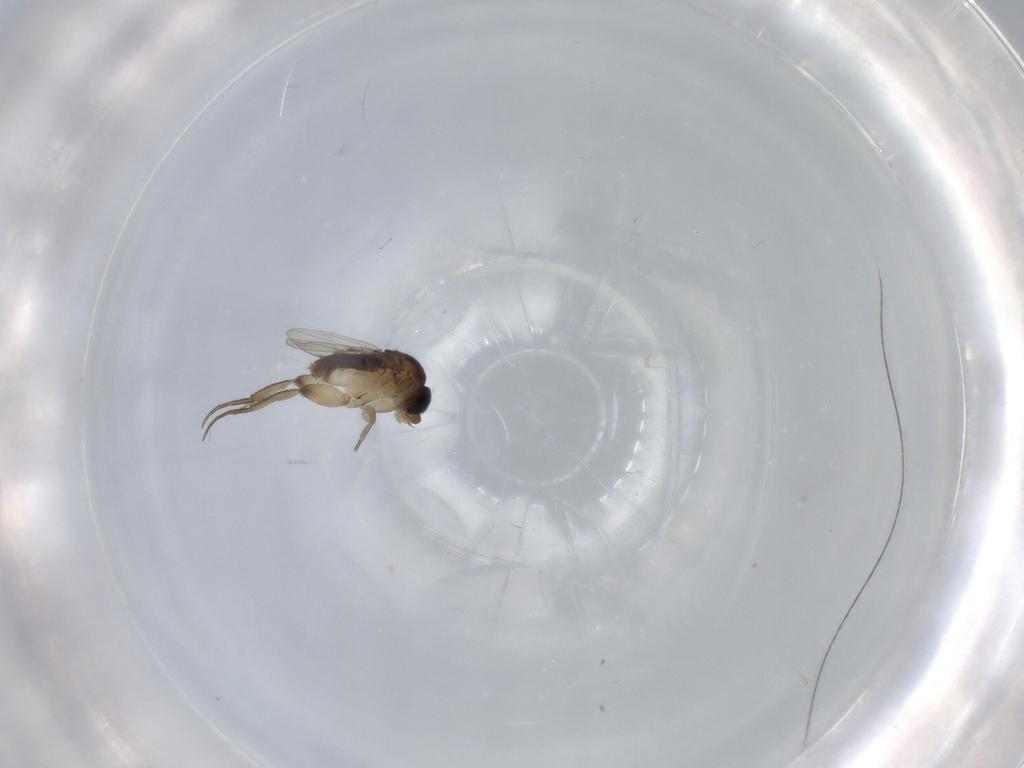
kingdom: Animalia
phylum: Arthropoda
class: Insecta
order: Diptera
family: Phoridae
